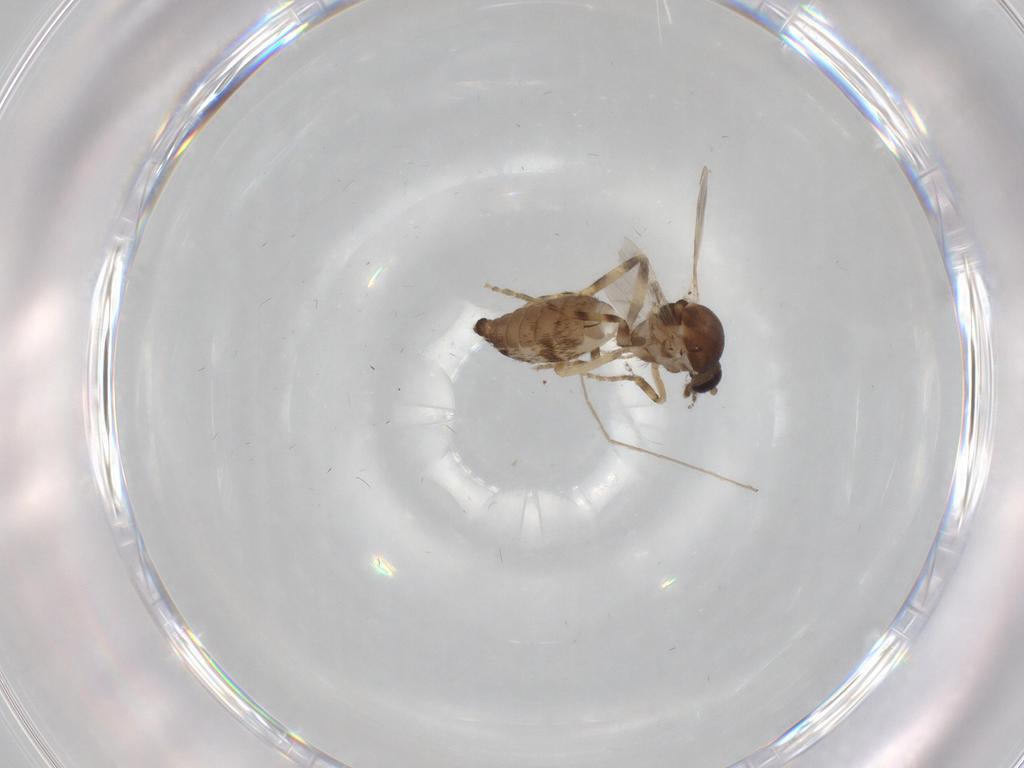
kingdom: Animalia
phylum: Arthropoda
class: Insecta
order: Diptera
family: Ceratopogonidae
